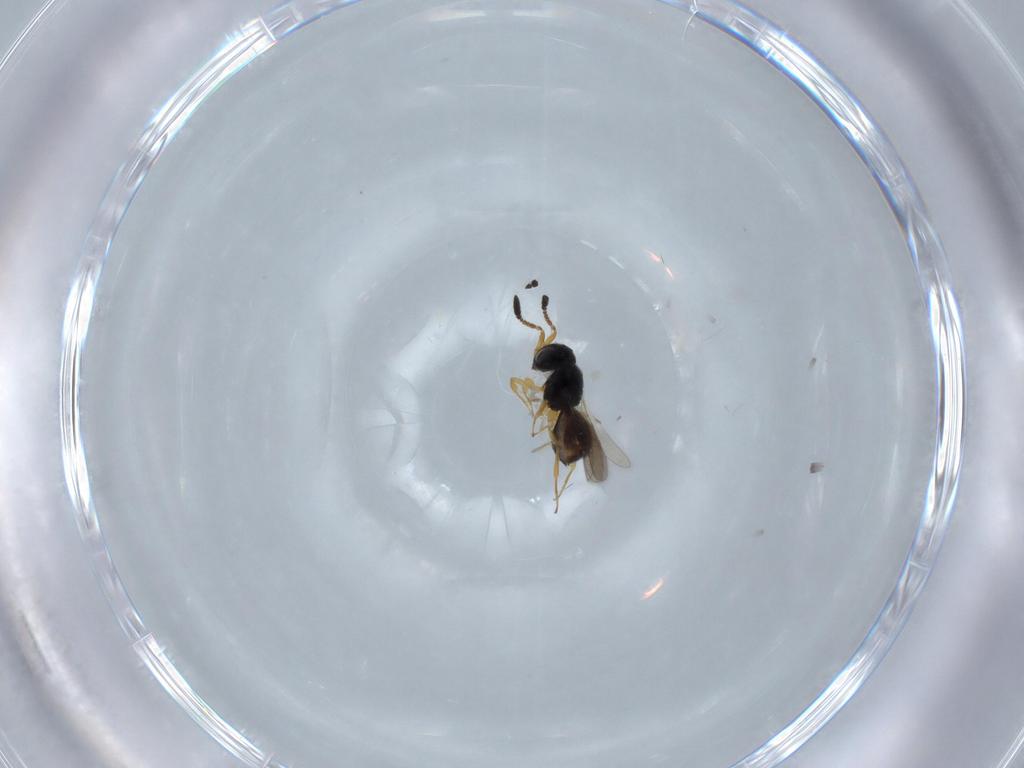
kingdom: Animalia
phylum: Arthropoda
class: Insecta
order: Hymenoptera
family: Scelionidae
